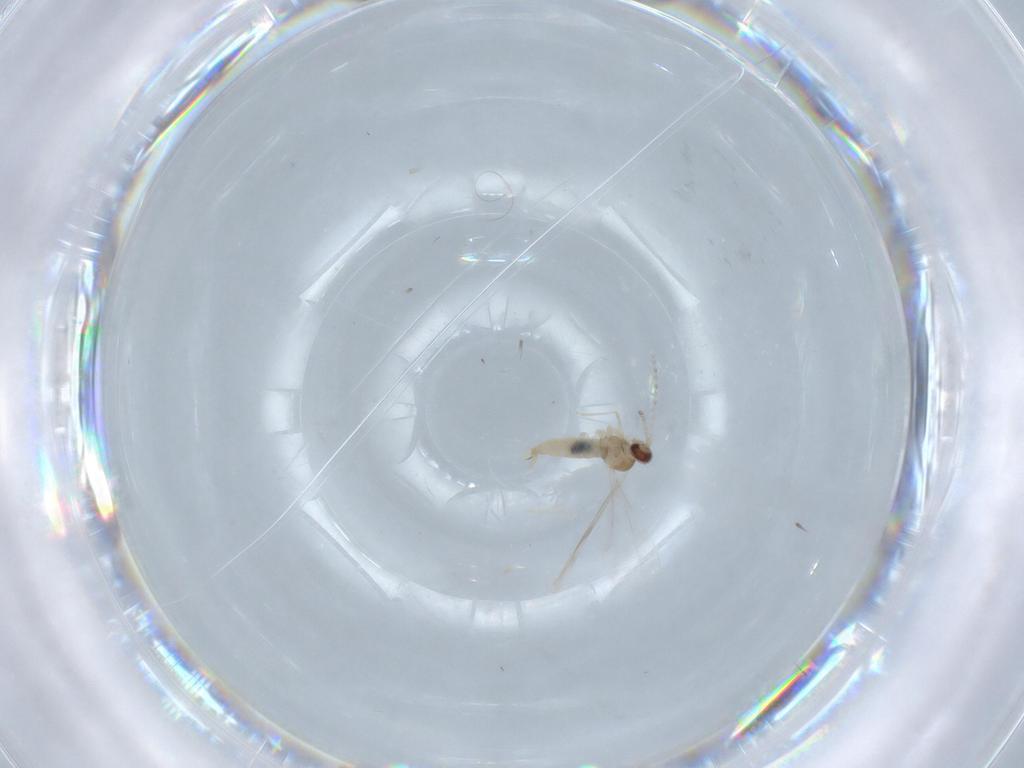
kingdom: Animalia
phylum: Arthropoda
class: Insecta
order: Diptera
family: Cecidomyiidae
